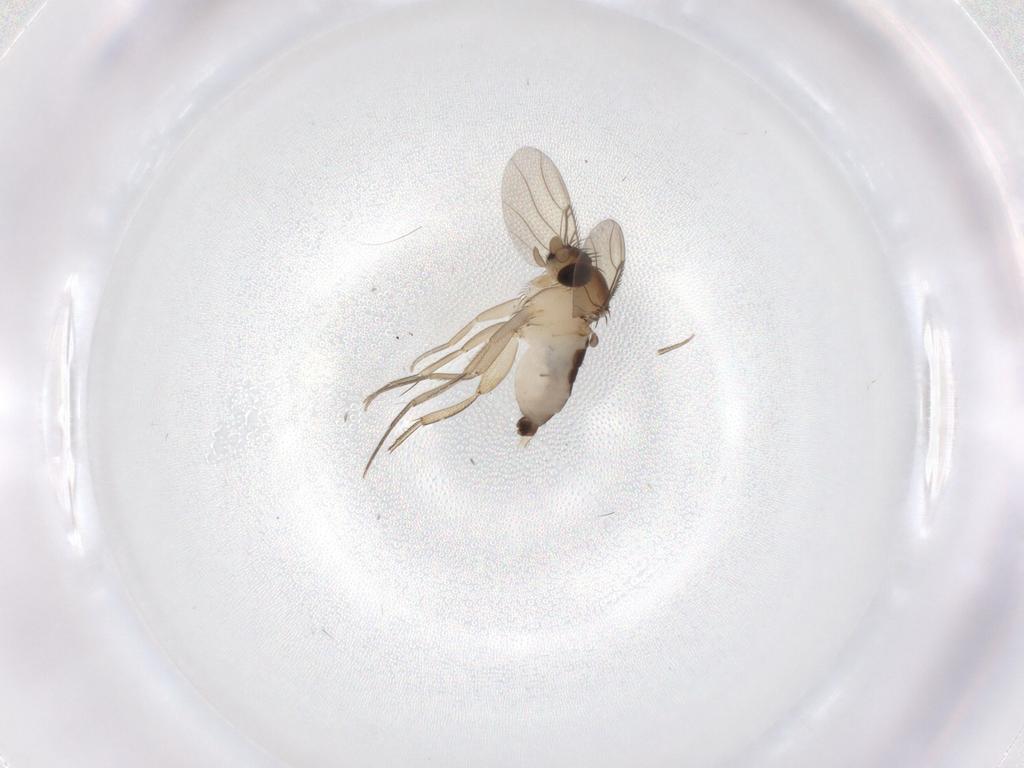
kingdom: Animalia
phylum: Arthropoda
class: Insecta
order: Diptera
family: Phoridae
